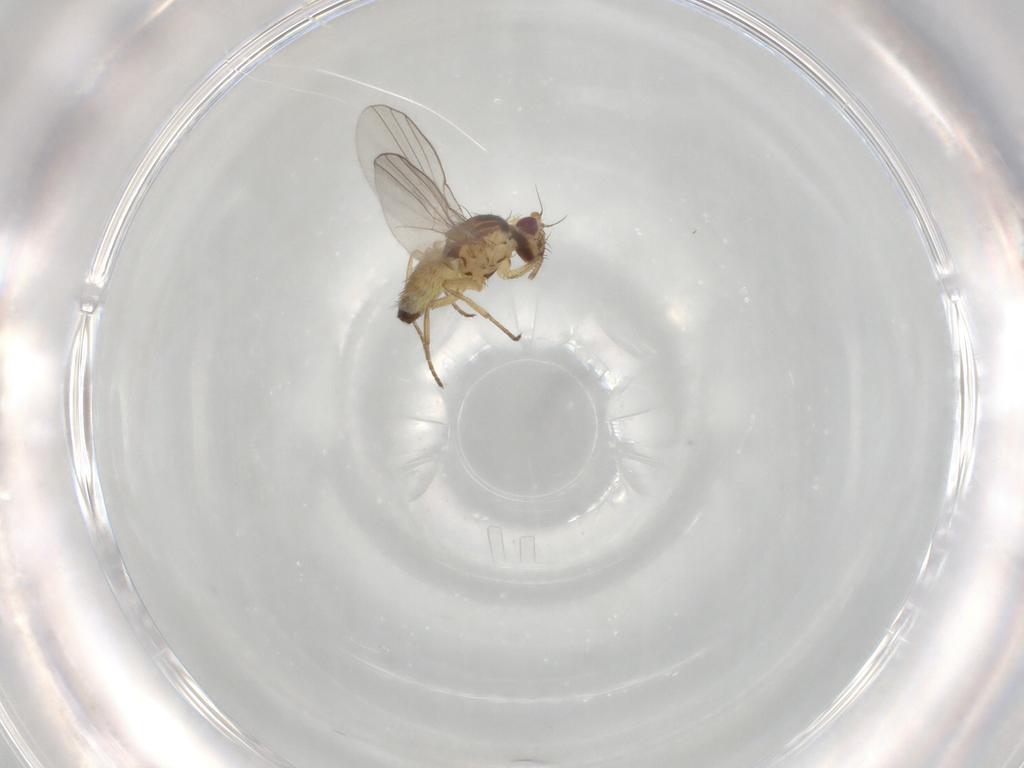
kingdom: Animalia
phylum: Arthropoda
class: Insecta
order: Diptera
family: Agromyzidae
